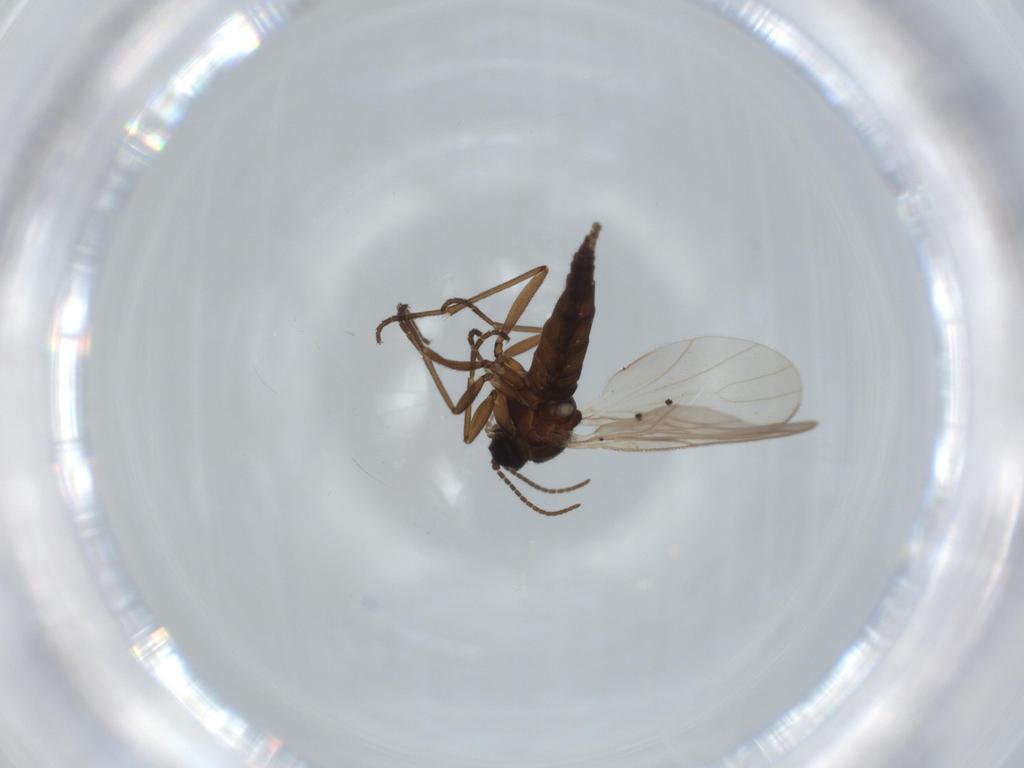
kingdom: Animalia
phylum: Arthropoda
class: Insecta
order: Diptera
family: Sciaridae
